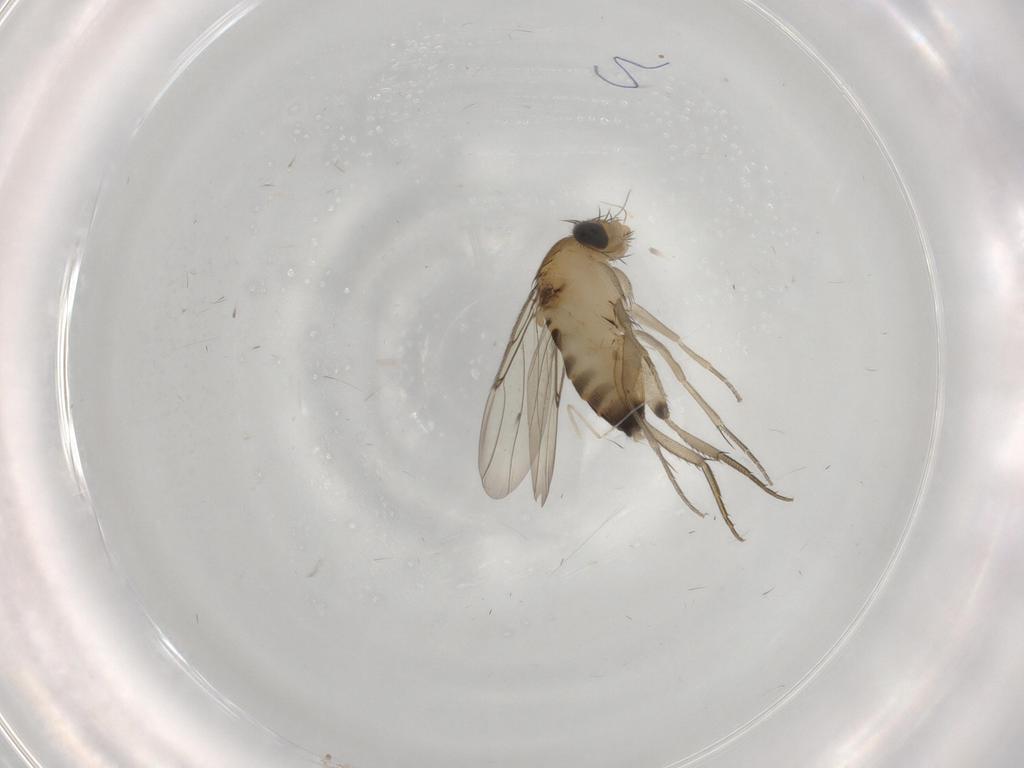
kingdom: Animalia
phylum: Arthropoda
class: Insecta
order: Diptera
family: Phoridae
